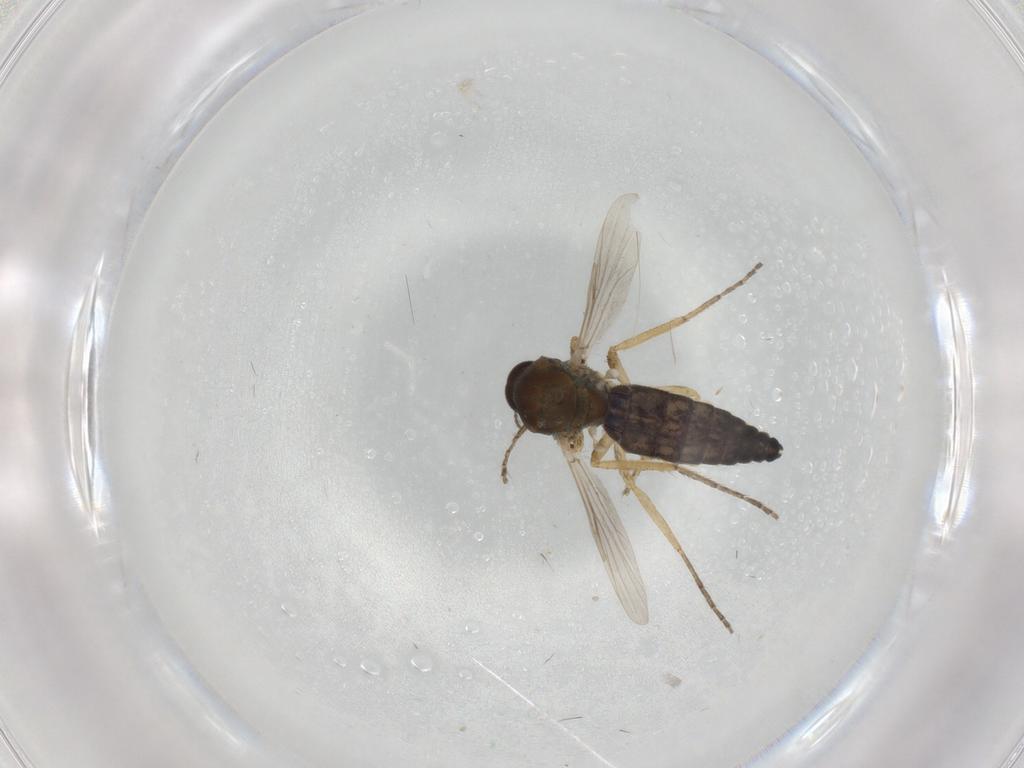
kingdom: Animalia
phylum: Arthropoda
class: Insecta
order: Diptera
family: Ceratopogonidae
